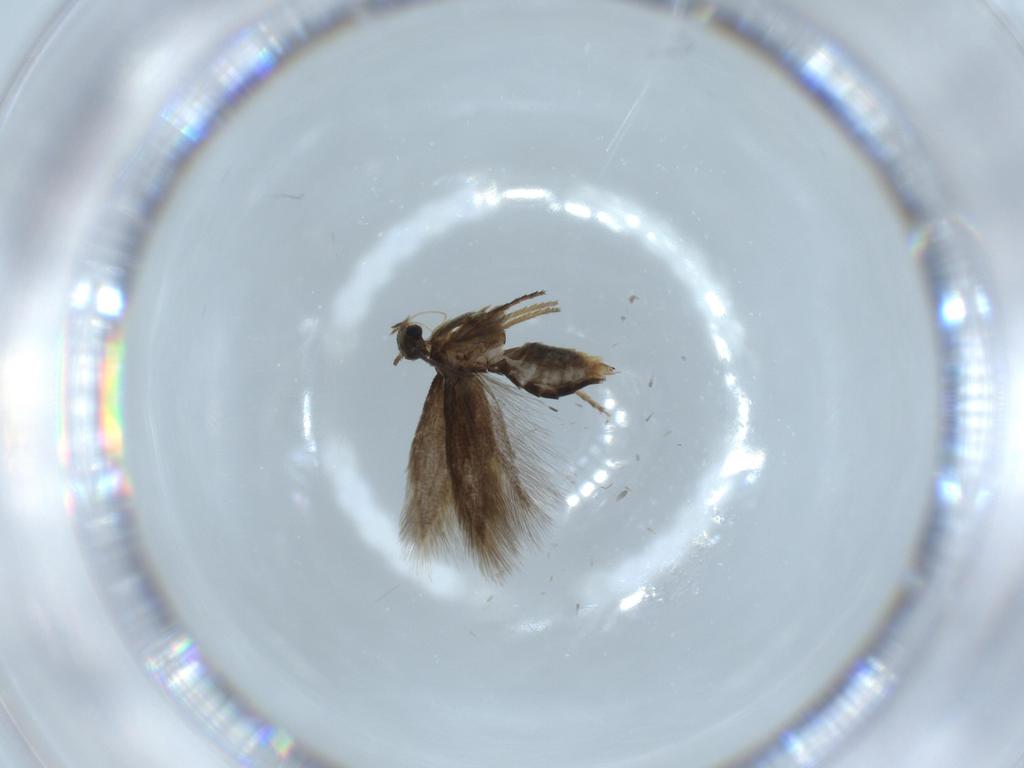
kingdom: Animalia
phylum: Arthropoda
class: Insecta
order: Lepidoptera
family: Heliozelidae
